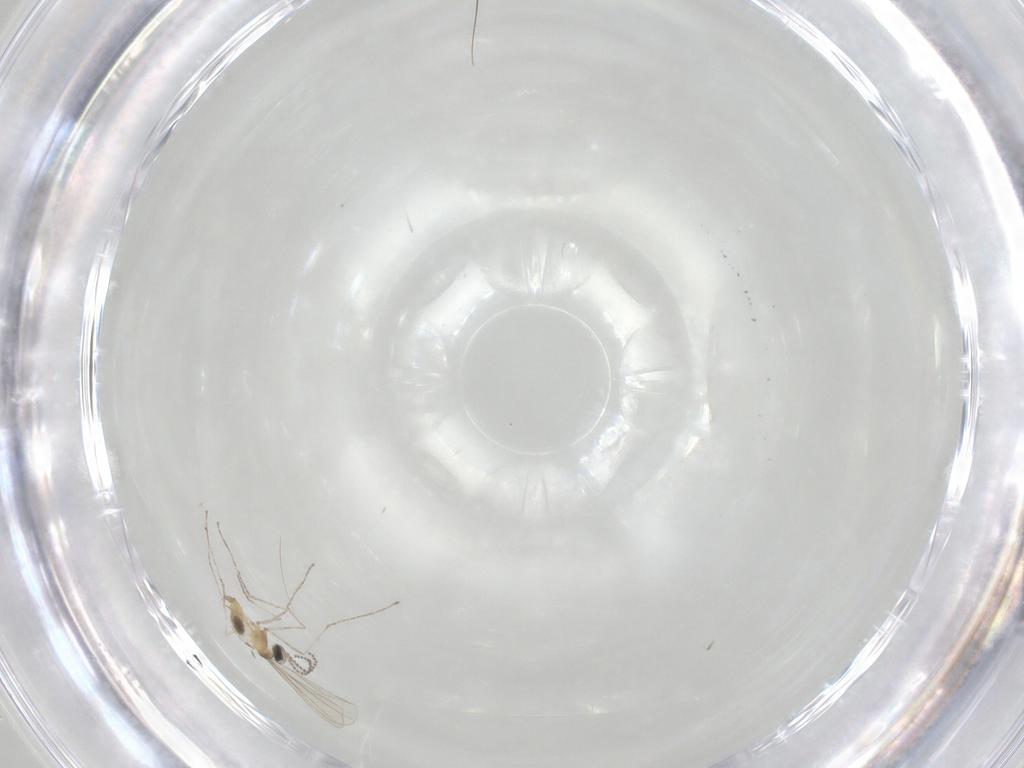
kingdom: Animalia
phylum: Arthropoda
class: Insecta
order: Diptera
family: Cecidomyiidae
